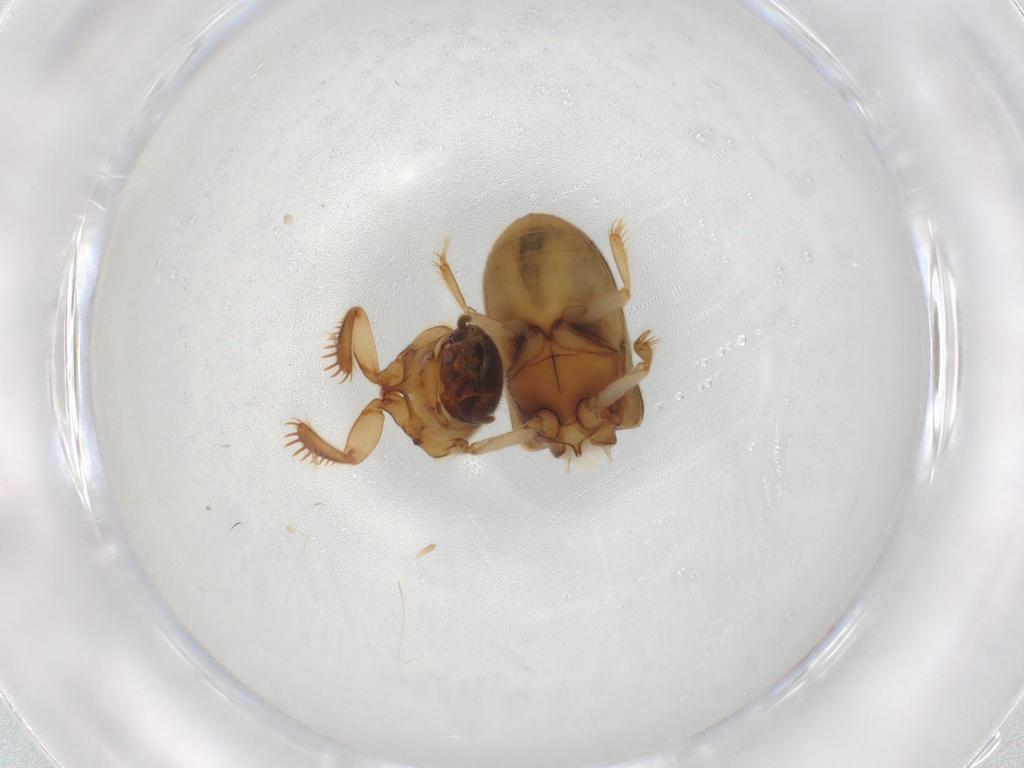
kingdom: Animalia
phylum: Arthropoda
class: Insecta
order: Coleoptera
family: Heteroceridae
